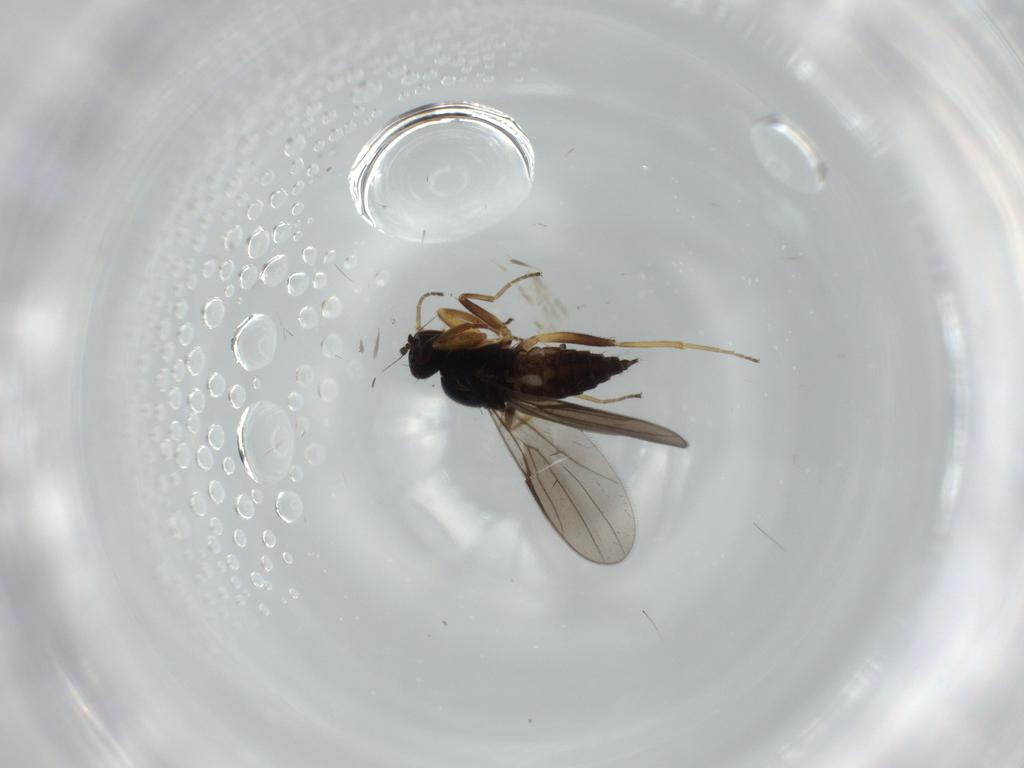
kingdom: Animalia
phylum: Arthropoda
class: Insecta
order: Diptera
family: Hybotidae
